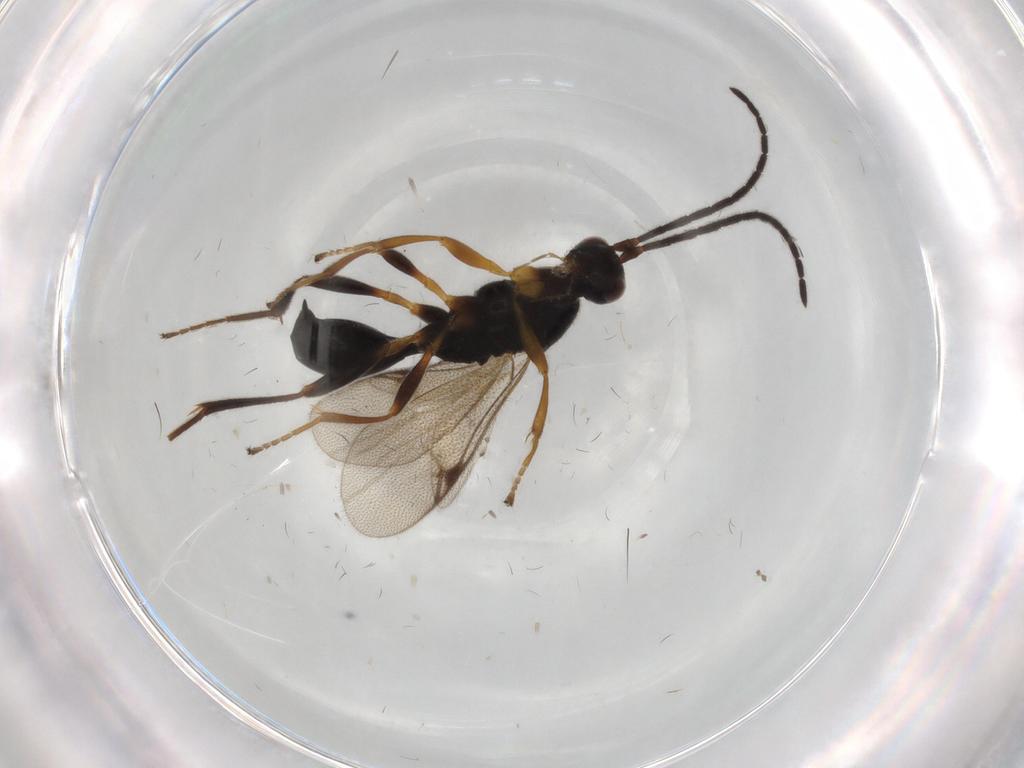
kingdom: Animalia
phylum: Arthropoda
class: Insecta
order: Hymenoptera
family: Proctotrupidae
